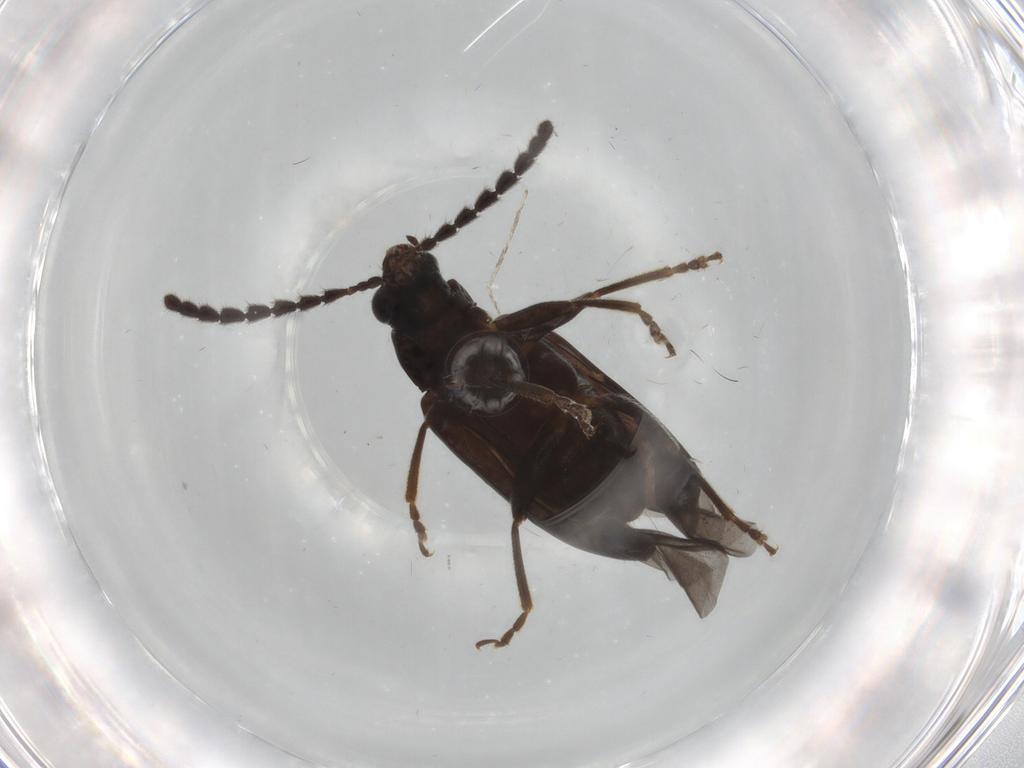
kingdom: Animalia
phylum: Arthropoda
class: Insecta
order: Coleoptera
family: Chrysomelidae
